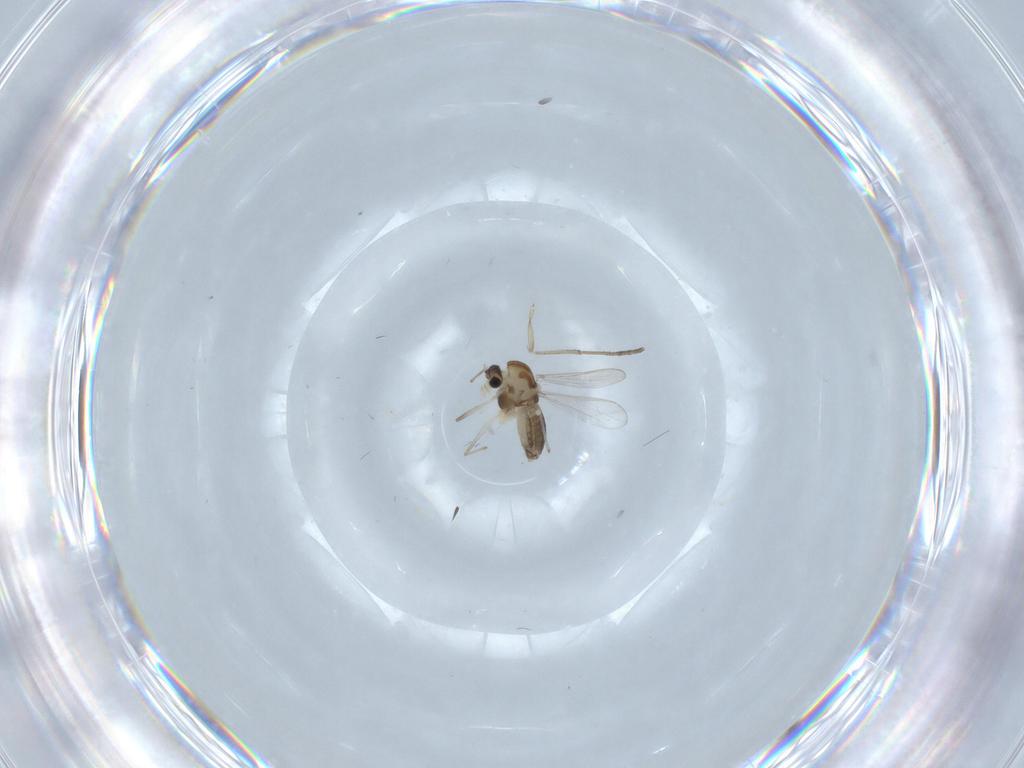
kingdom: Animalia
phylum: Arthropoda
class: Insecta
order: Diptera
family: Chironomidae
